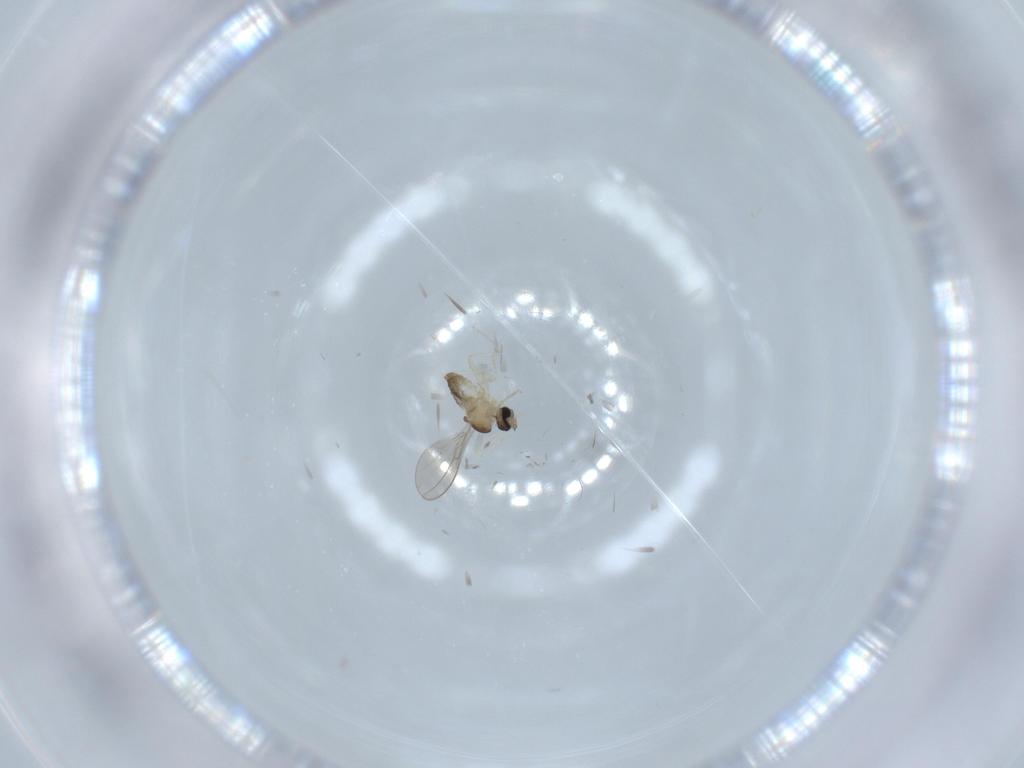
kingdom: Animalia
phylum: Arthropoda
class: Insecta
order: Diptera
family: Cecidomyiidae
